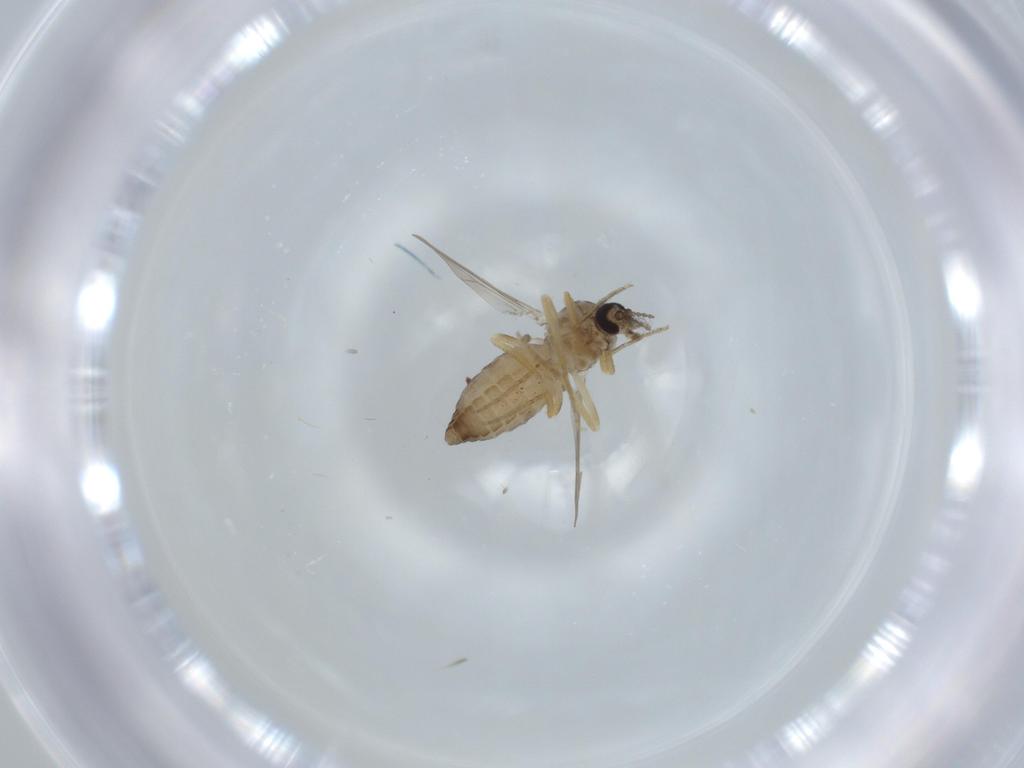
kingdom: Animalia
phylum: Arthropoda
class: Insecta
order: Diptera
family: Ceratopogonidae
